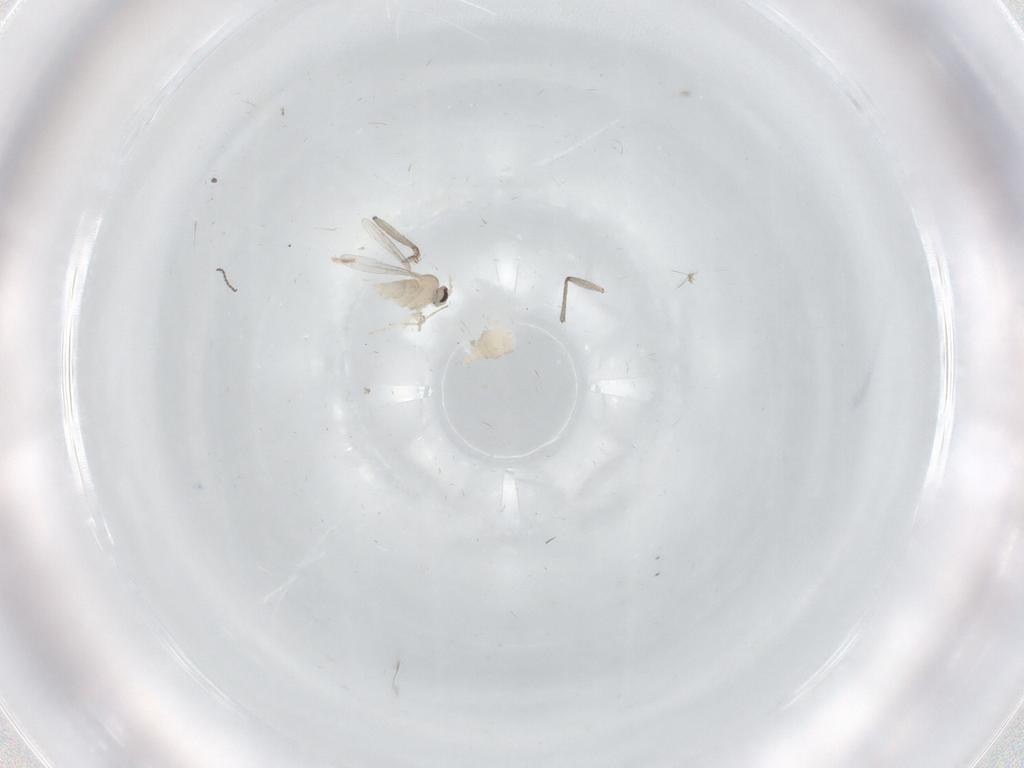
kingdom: Animalia
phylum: Arthropoda
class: Insecta
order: Diptera
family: Cecidomyiidae
